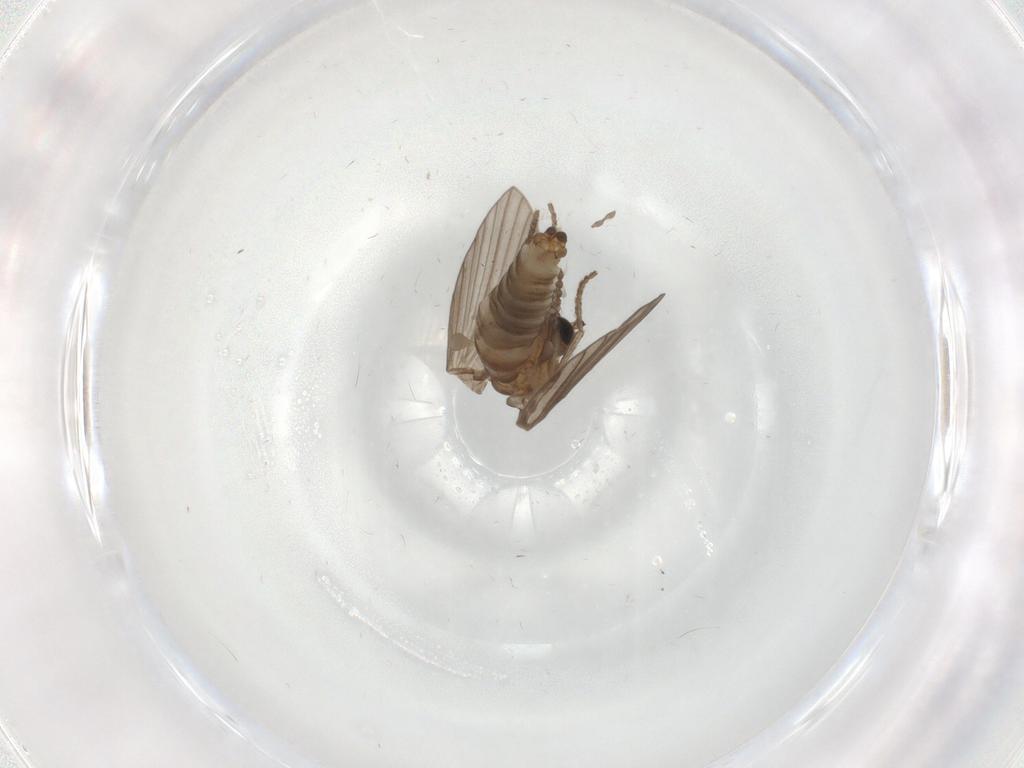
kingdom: Animalia
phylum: Arthropoda
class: Insecta
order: Diptera
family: Psychodidae
